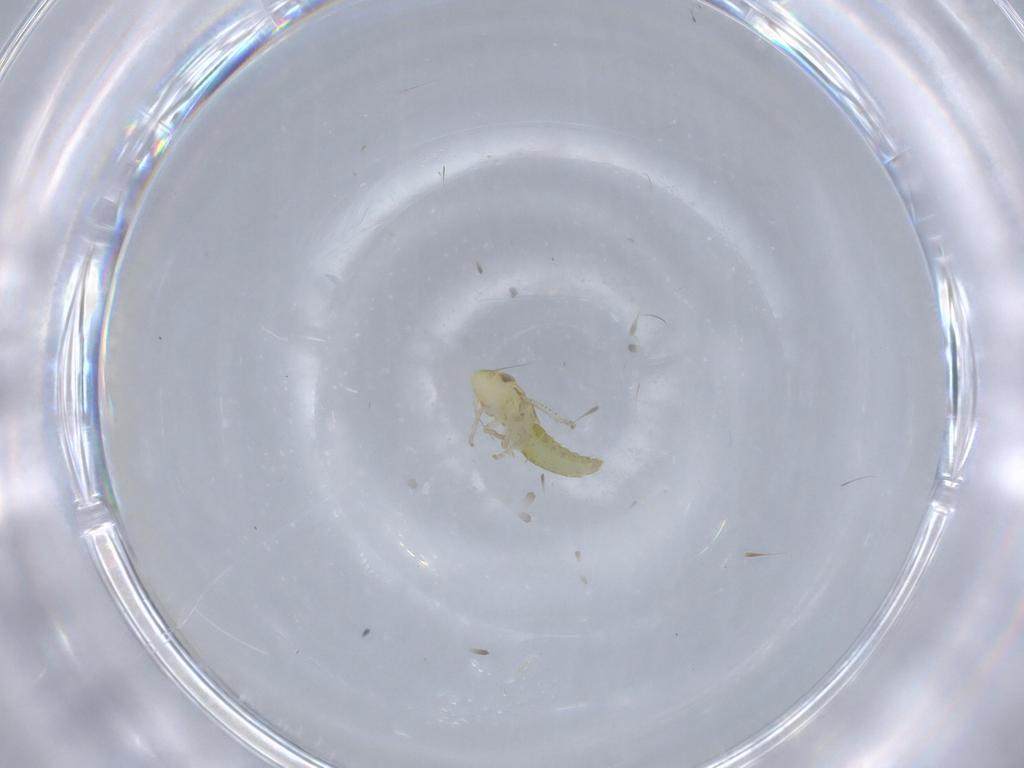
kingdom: Animalia
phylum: Arthropoda
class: Insecta
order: Hemiptera
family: Cicadellidae
